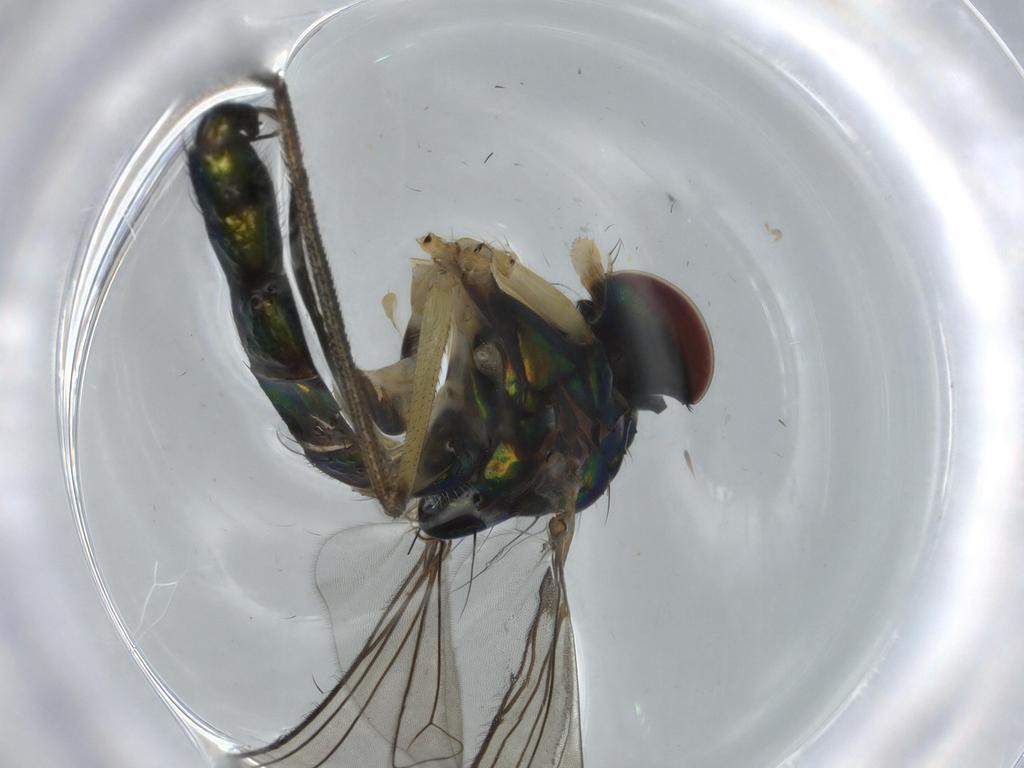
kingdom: Animalia
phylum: Arthropoda
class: Insecta
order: Diptera
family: Dolichopodidae
